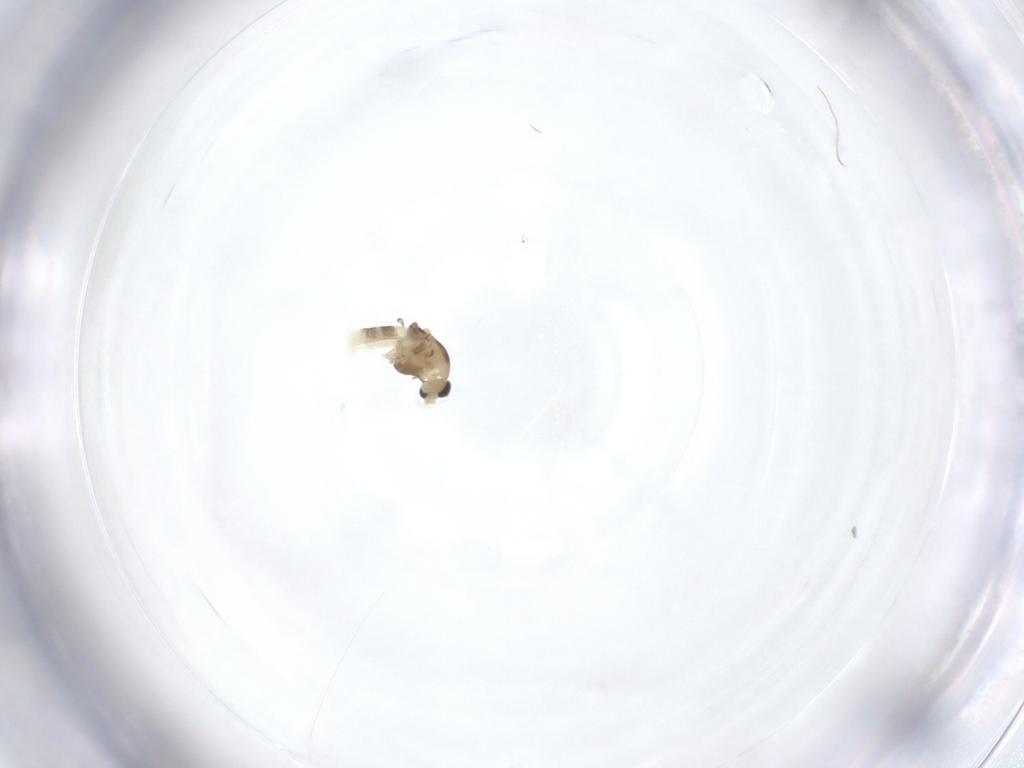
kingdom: Animalia
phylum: Arthropoda
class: Insecta
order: Diptera
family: Chironomidae
